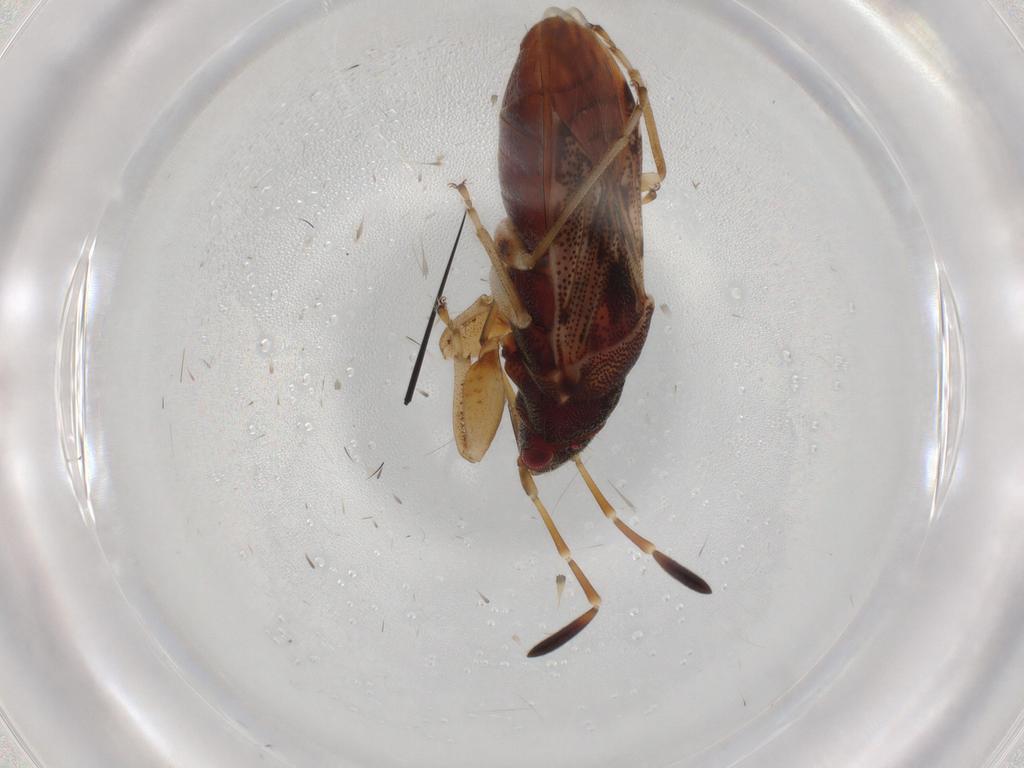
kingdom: Animalia
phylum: Arthropoda
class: Insecta
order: Hemiptera
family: Rhyparochromidae
